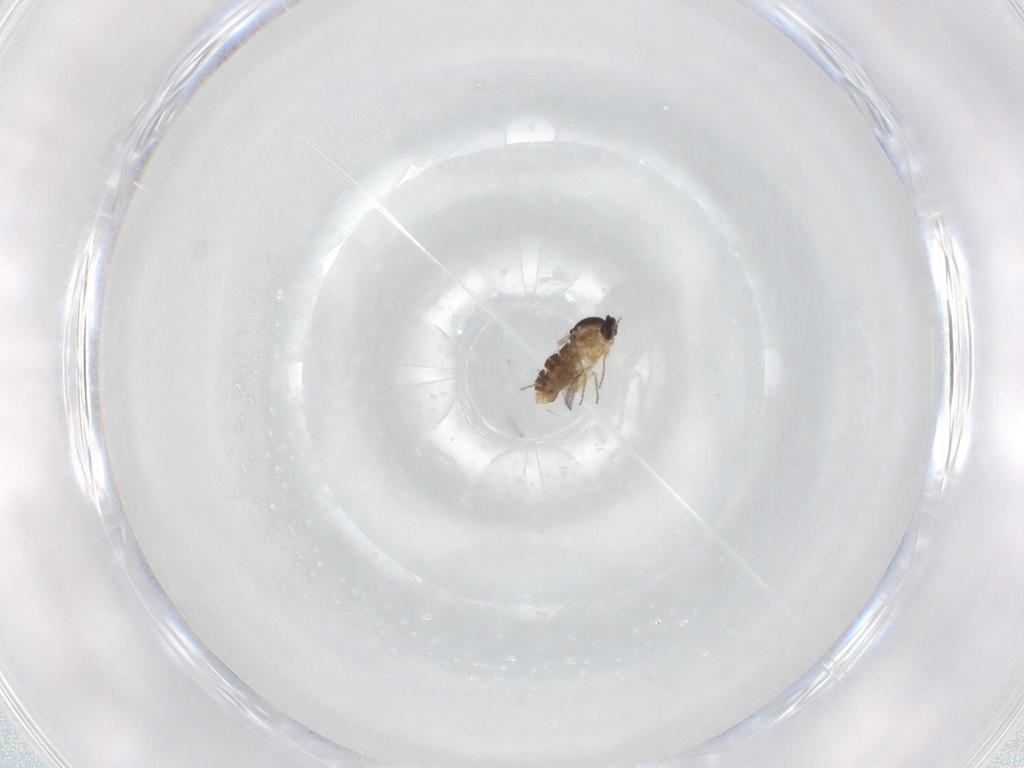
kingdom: Animalia
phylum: Arthropoda
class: Insecta
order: Diptera
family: Ceratopogonidae
